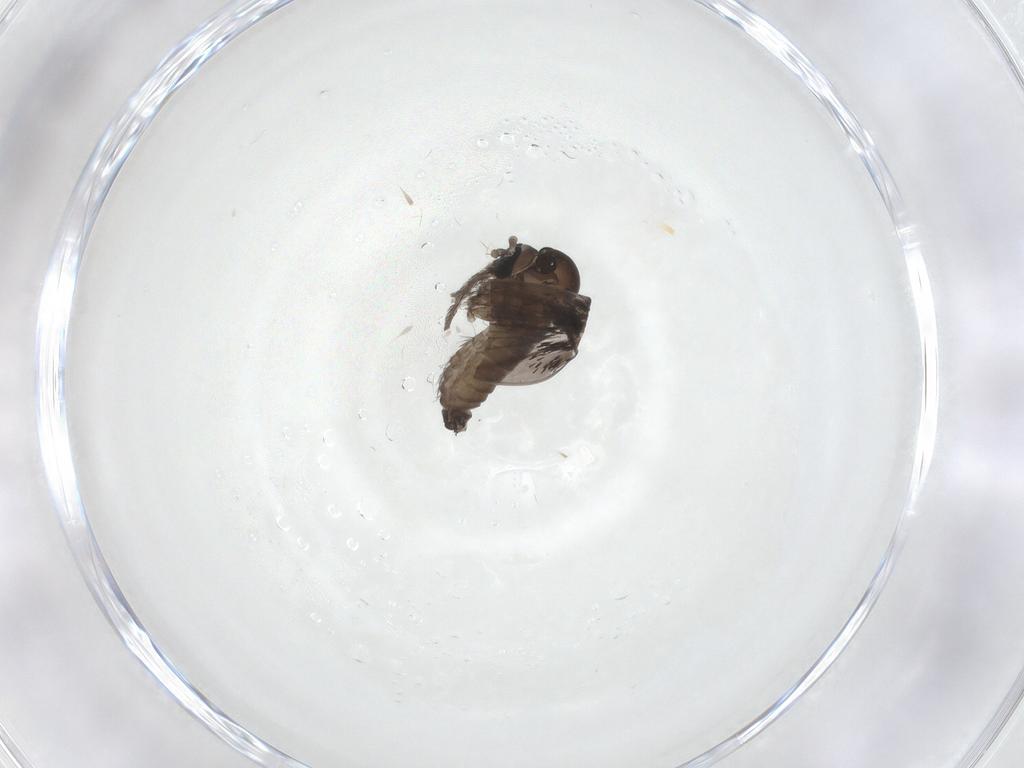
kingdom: Animalia
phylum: Arthropoda
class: Insecta
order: Diptera
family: Sciaridae
